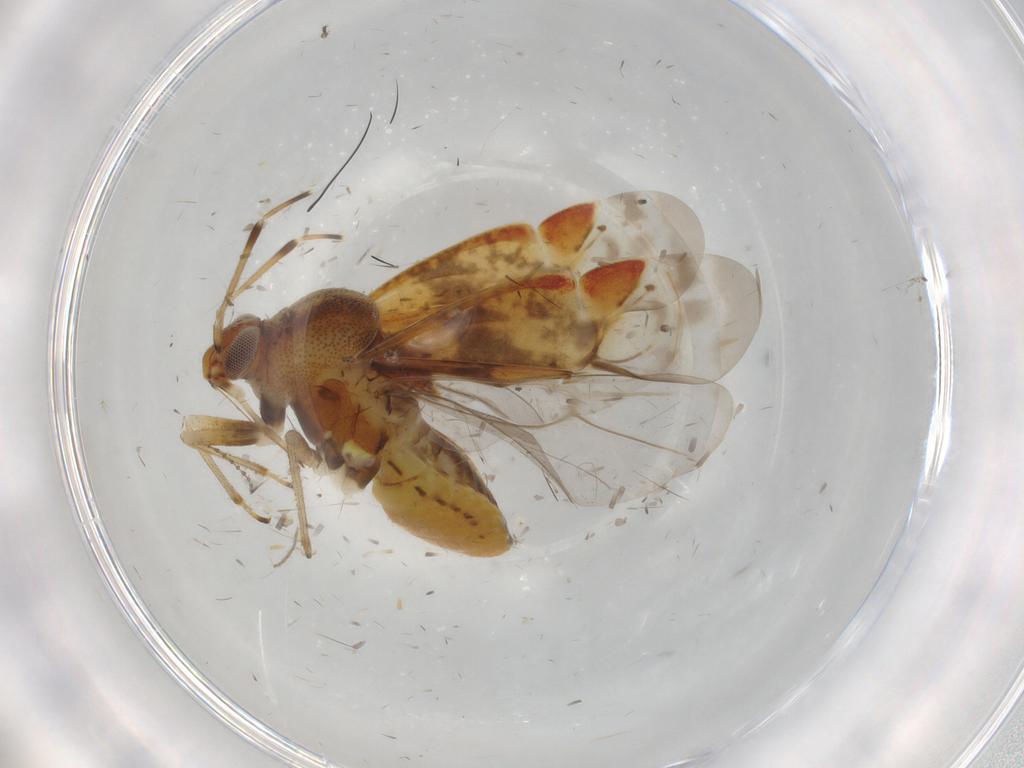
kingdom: Animalia
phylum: Arthropoda
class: Insecta
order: Hemiptera
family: Miridae
